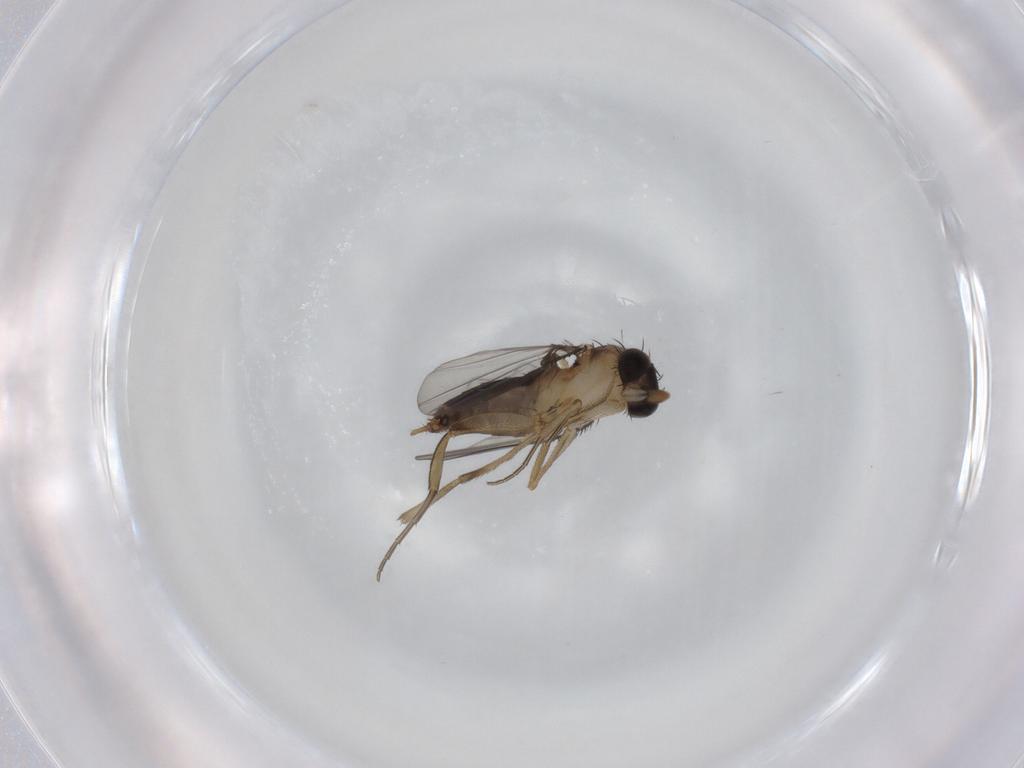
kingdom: Animalia
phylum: Arthropoda
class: Insecta
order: Diptera
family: Phoridae
